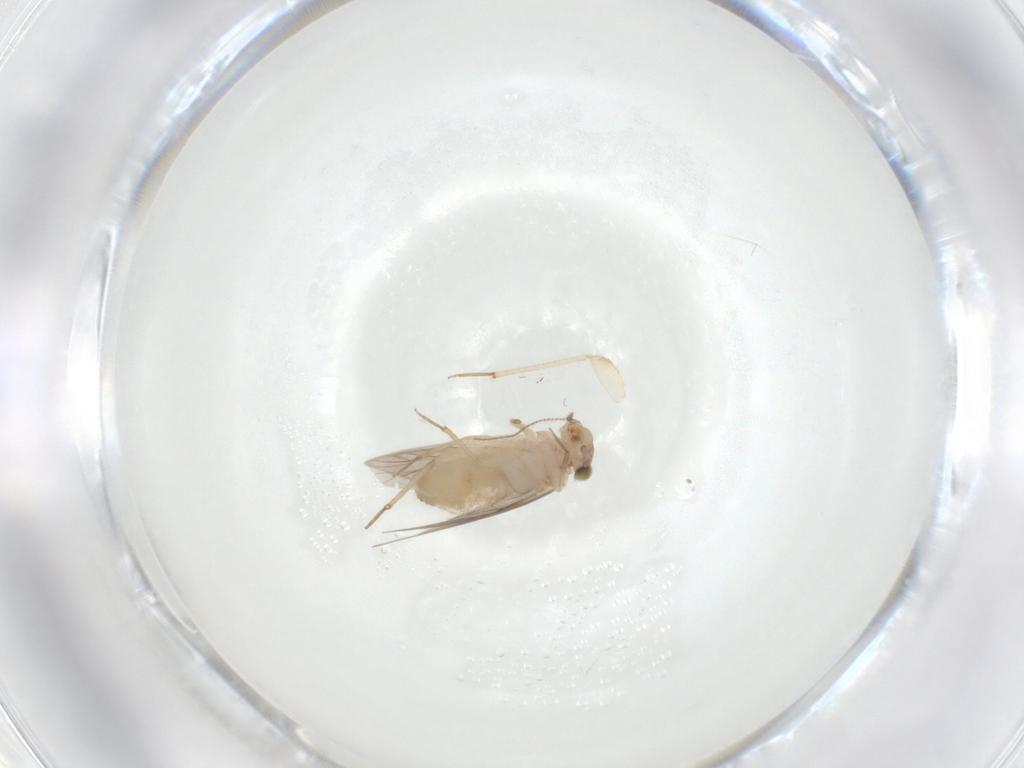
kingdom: Animalia
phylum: Arthropoda
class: Insecta
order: Psocodea
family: Lepidopsocidae
